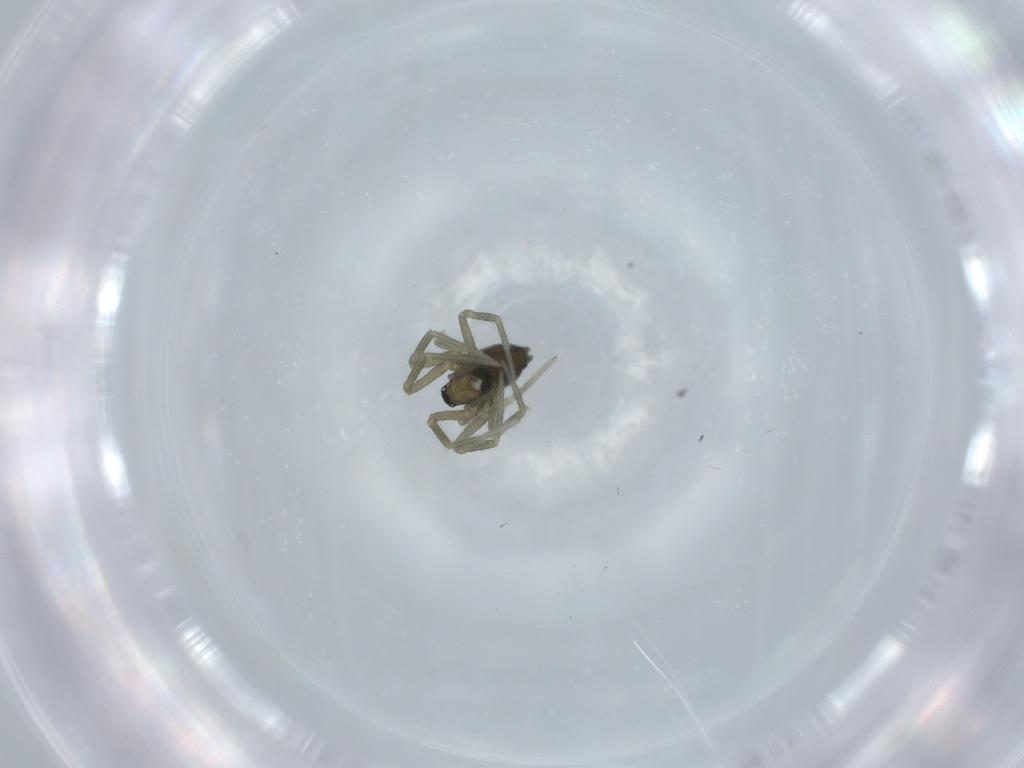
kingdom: Animalia
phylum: Arthropoda
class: Arachnida
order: Araneae
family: Linyphiidae
